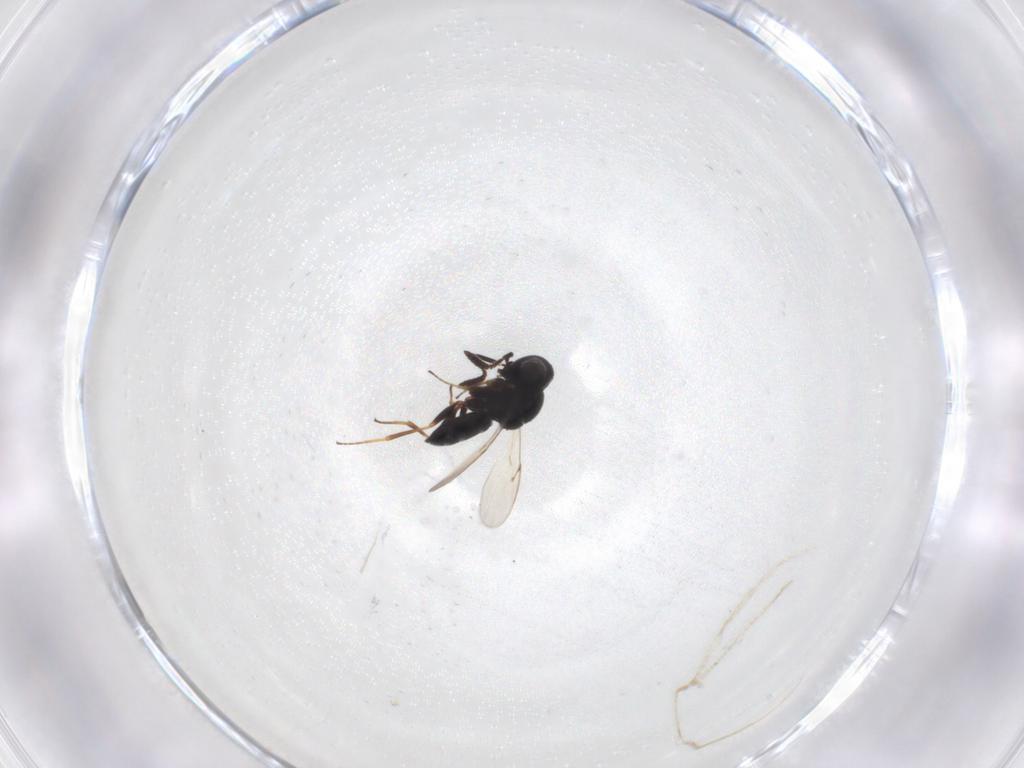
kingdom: Animalia
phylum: Arthropoda
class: Insecta
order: Hymenoptera
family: Scelionidae
